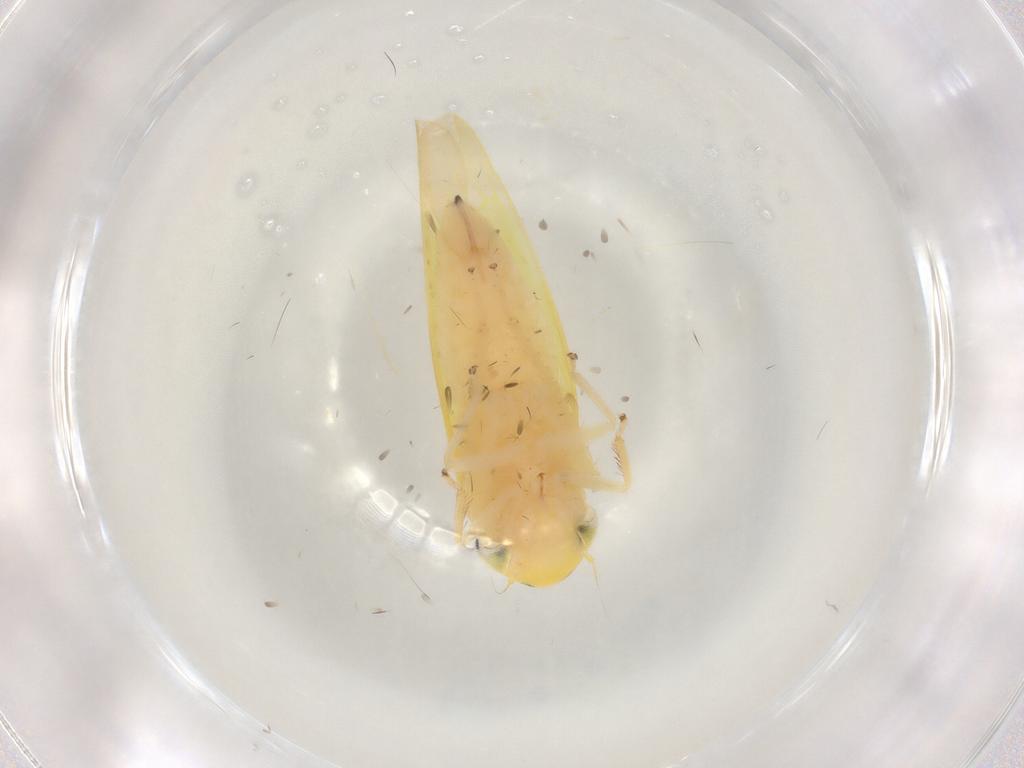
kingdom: Animalia
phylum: Arthropoda
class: Insecta
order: Hemiptera
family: Cicadellidae
